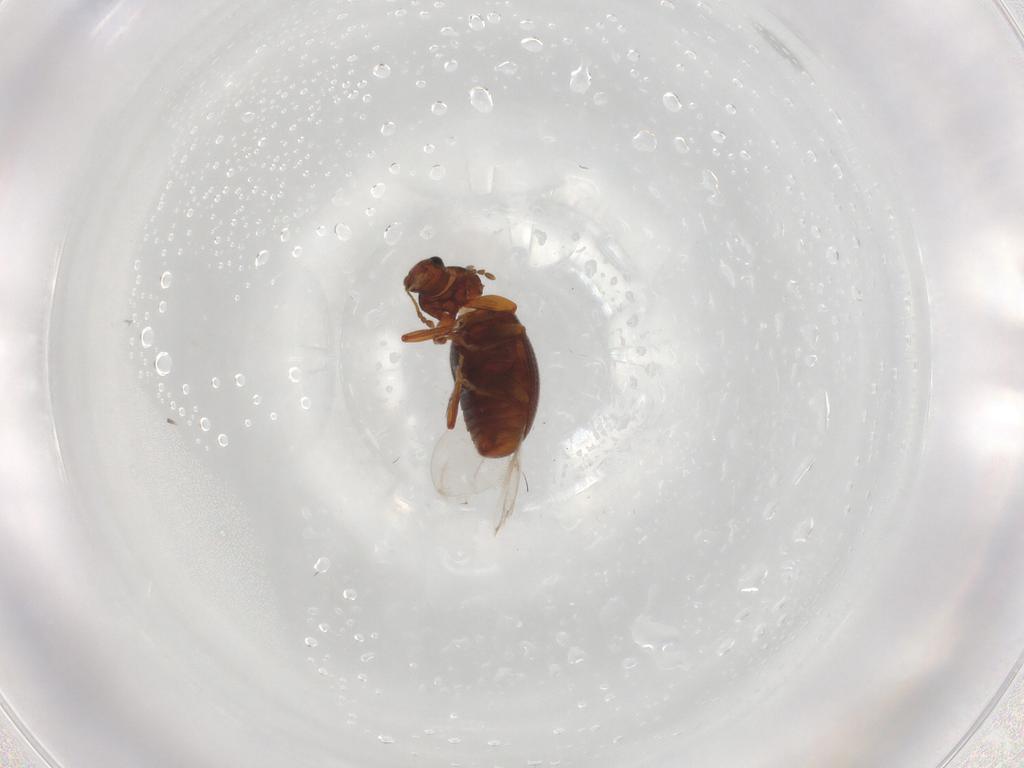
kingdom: Animalia
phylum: Arthropoda
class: Insecta
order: Coleoptera
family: Latridiidae
